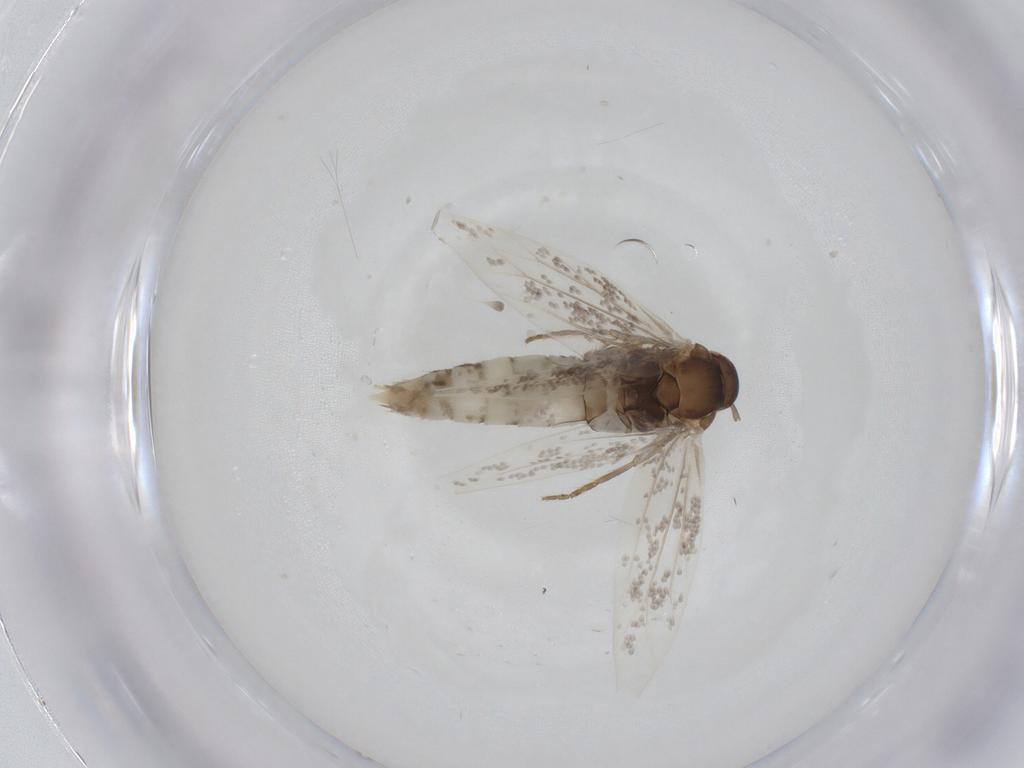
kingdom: Animalia
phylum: Arthropoda
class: Insecta
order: Lepidoptera
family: Elachistidae
